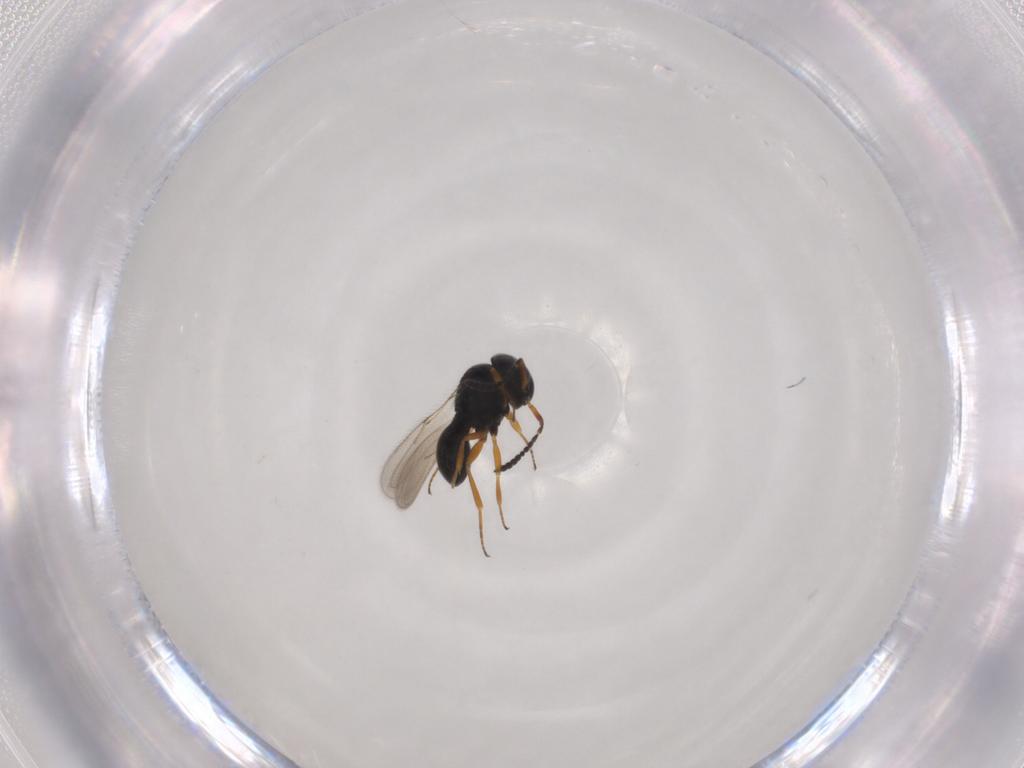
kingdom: Animalia
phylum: Arthropoda
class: Insecta
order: Hymenoptera
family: Scelionidae
